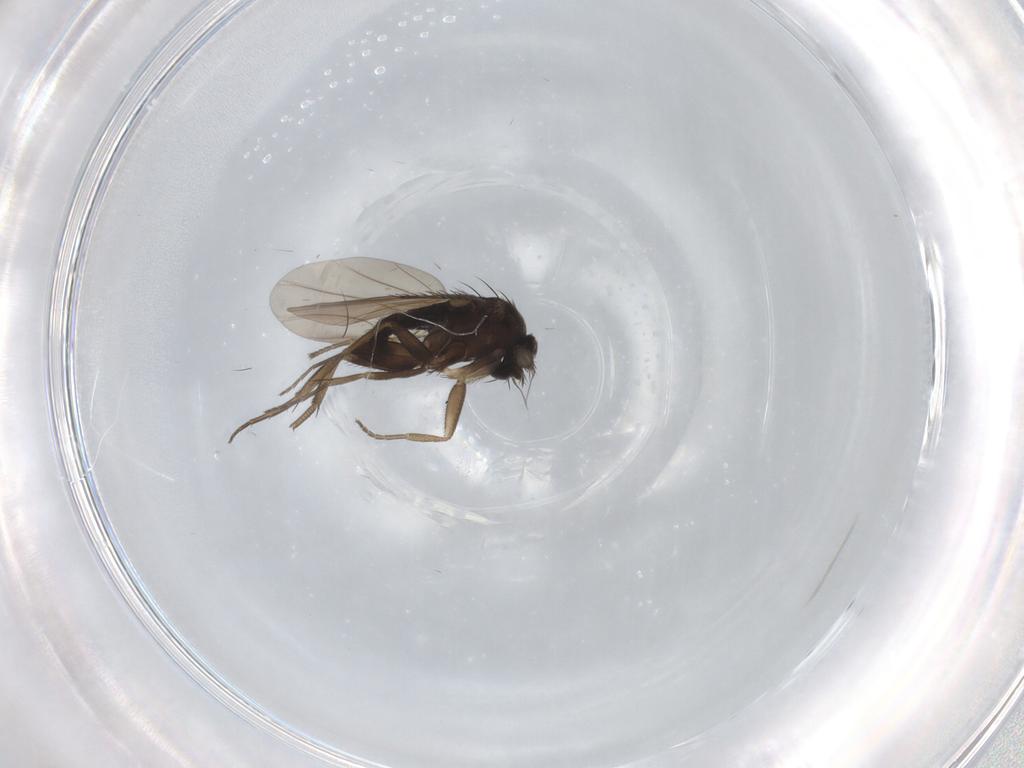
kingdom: Animalia
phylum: Arthropoda
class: Insecta
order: Diptera
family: Phoridae
